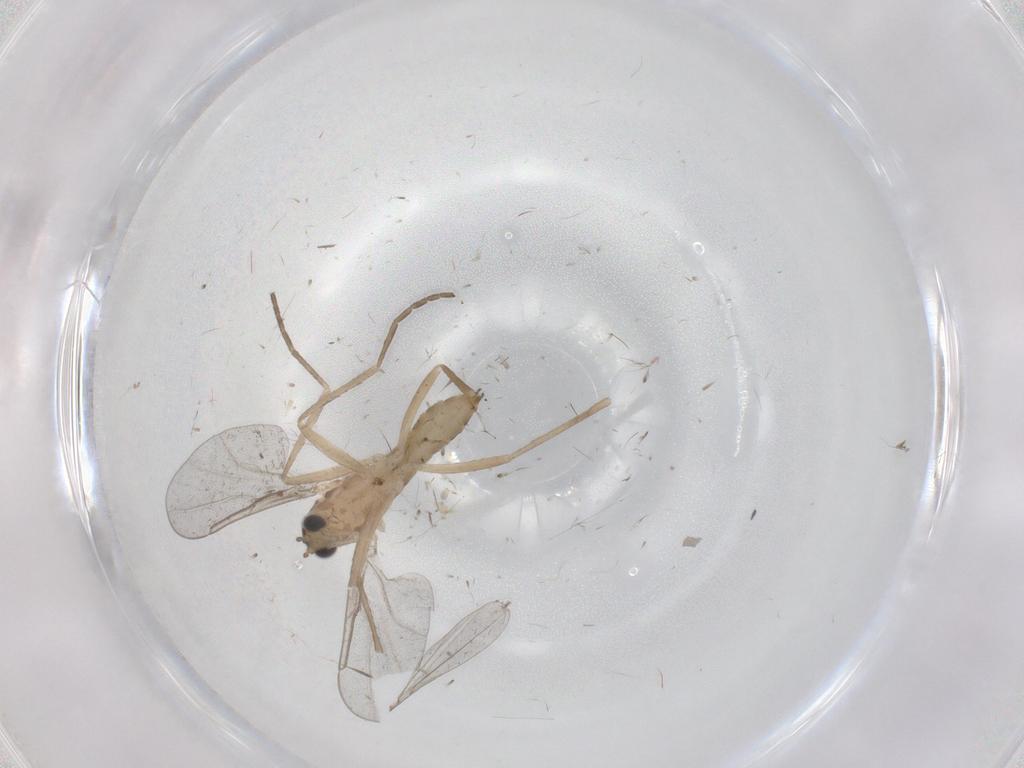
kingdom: Animalia
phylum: Arthropoda
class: Insecta
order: Diptera
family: Cecidomyiidae
